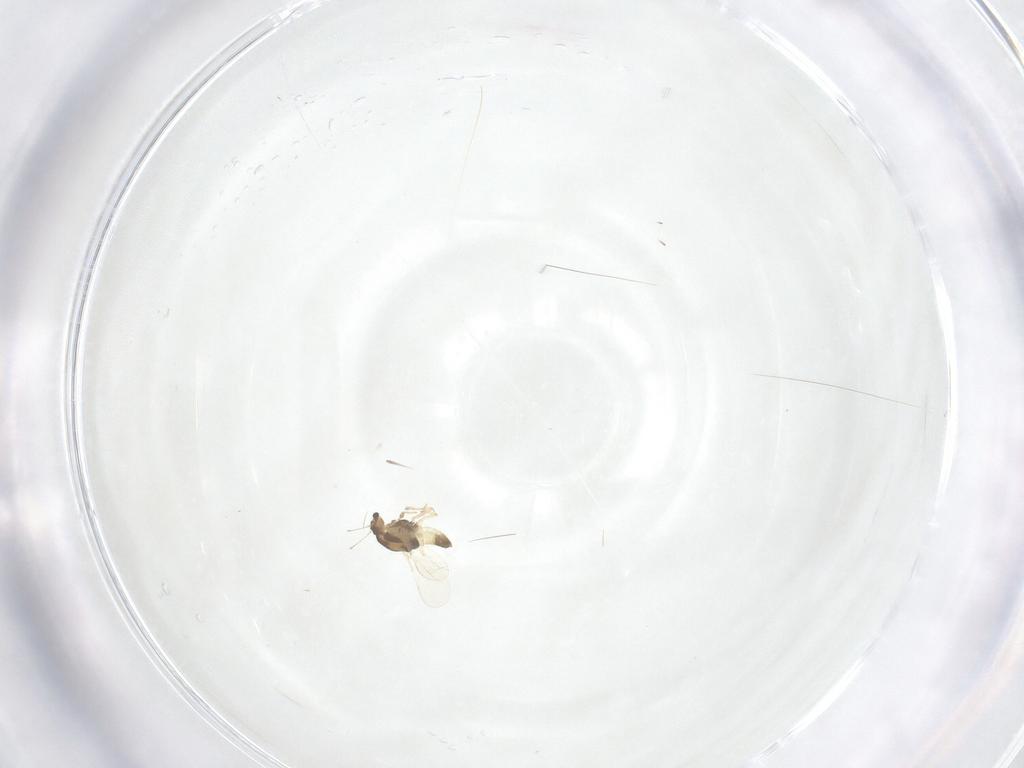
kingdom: Animalia
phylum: Arthropoda
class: Insecta
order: Diptera
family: Chironomidae
